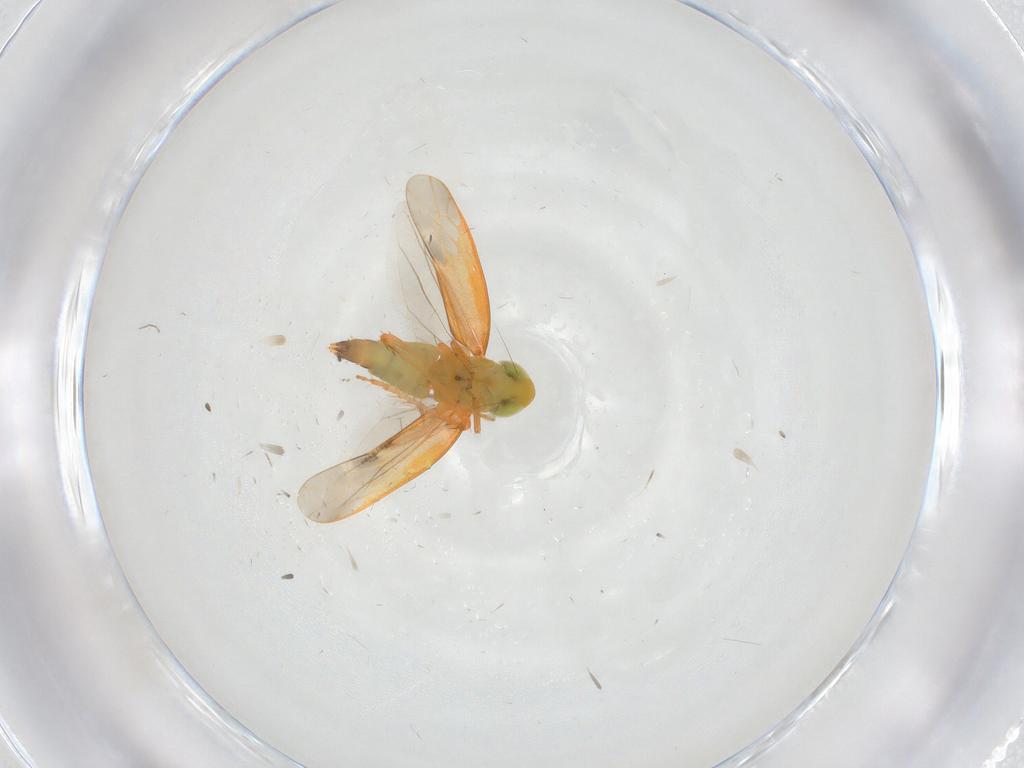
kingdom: Animalia
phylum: Arthropoda
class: Insecta
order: Hemiptera
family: Cicadellidae
